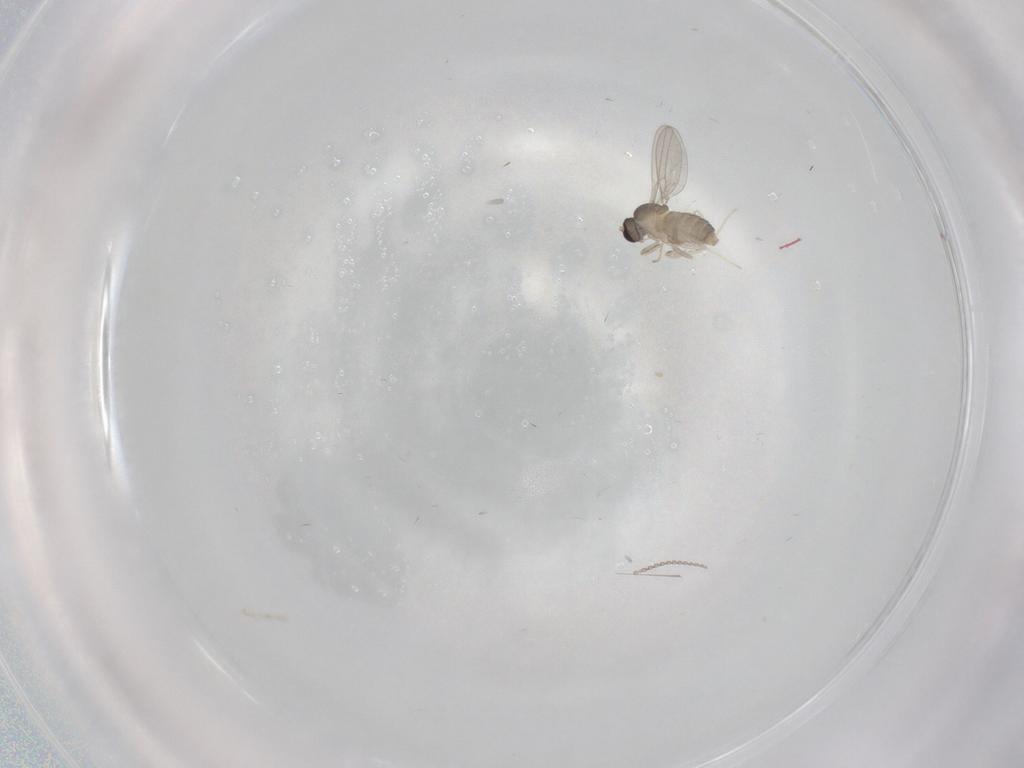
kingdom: Animalia
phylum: Arthropoda
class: Insecta
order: Diptera
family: Cecidomyiidae
